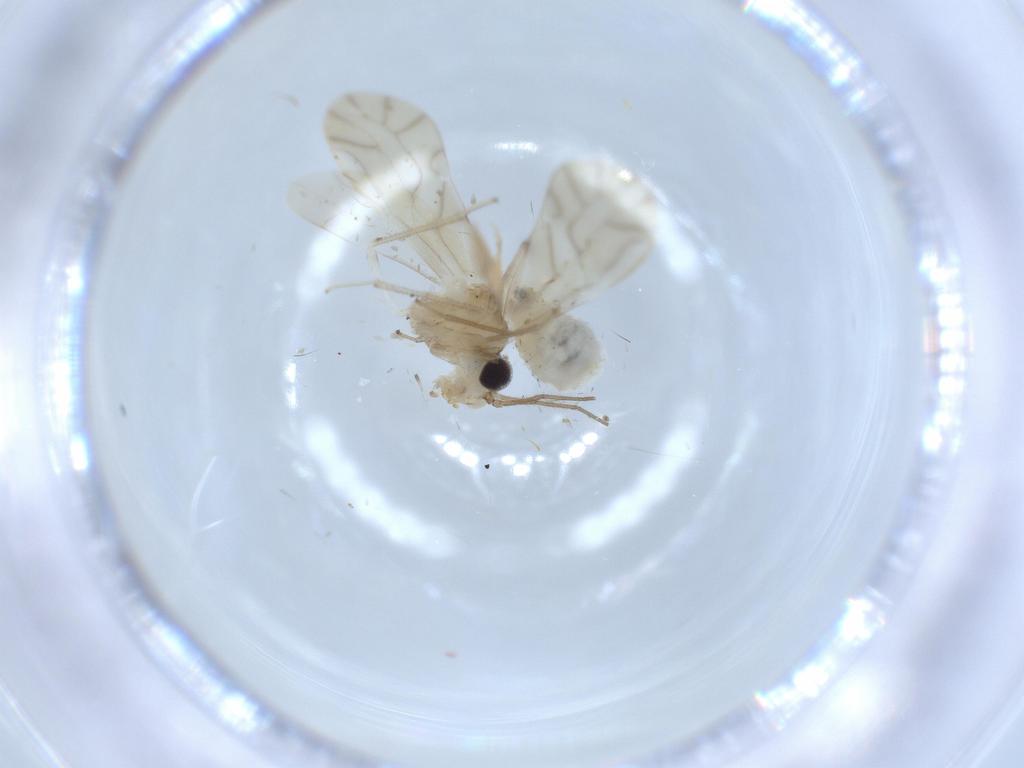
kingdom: Animalia
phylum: Arthropoda
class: Insecta
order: Psocodea
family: Caeciliusidae
